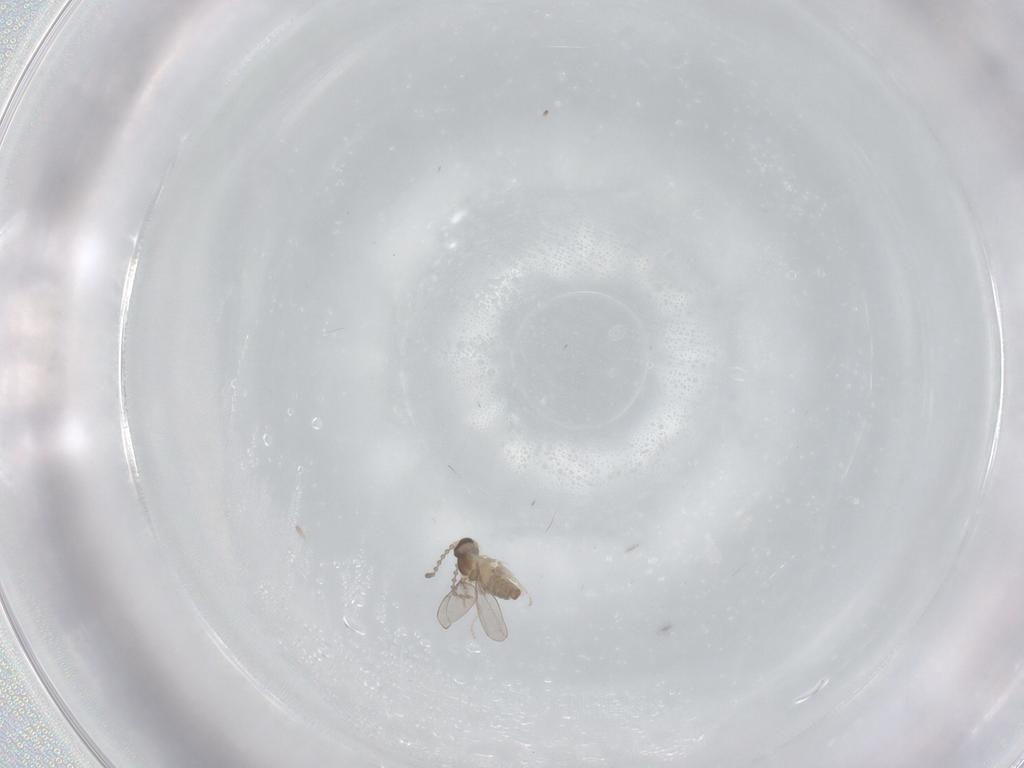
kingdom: Animalia
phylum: Arthropoda
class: Insecta
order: Diptera
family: Cecidomyiidae
